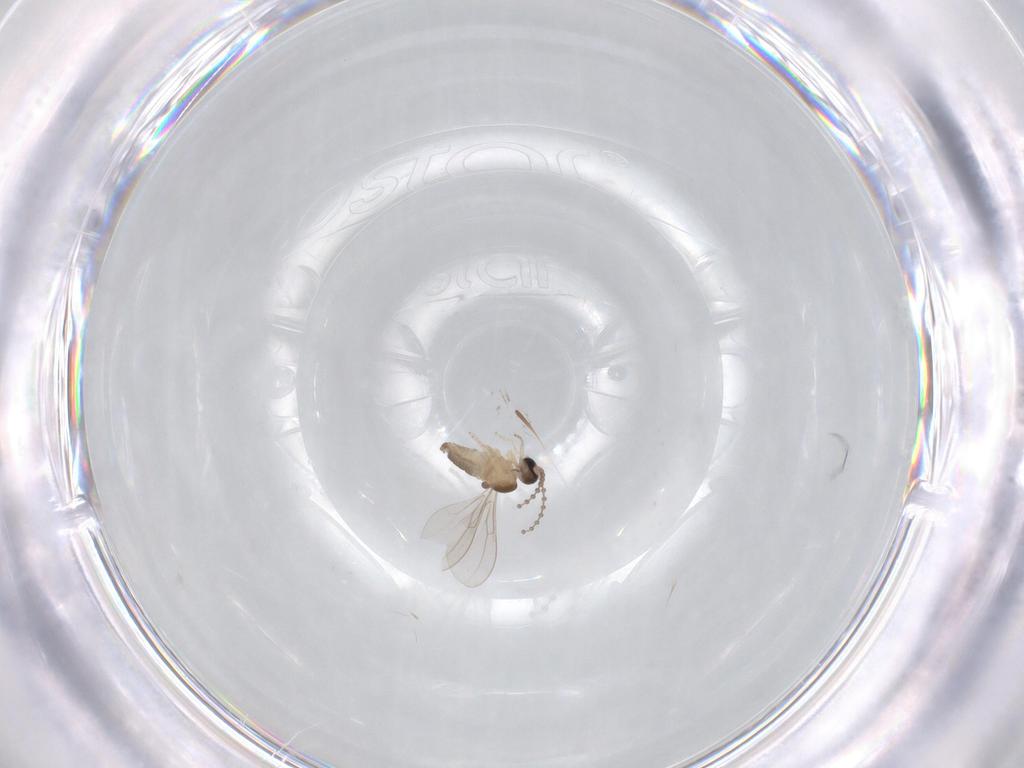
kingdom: Animalia
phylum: Arthropoda
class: Insecta
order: Diptera
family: Cecidomyiidae
